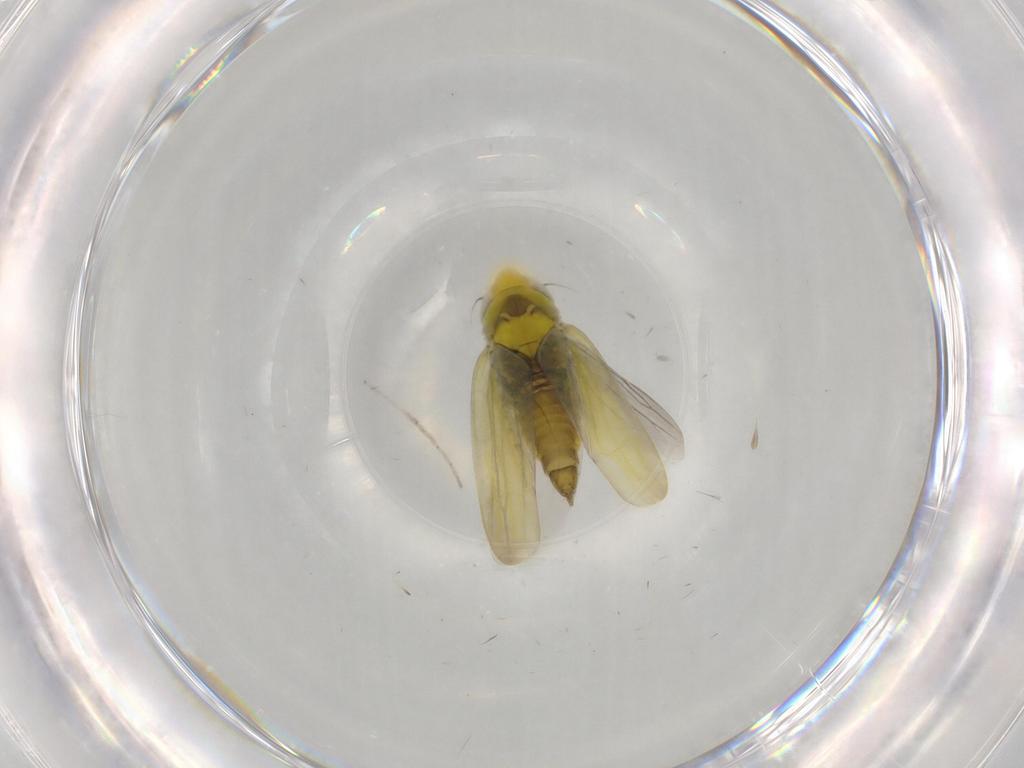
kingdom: Animalia
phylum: Arthropoda
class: Insecta
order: Hemiptera
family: Cicadellidae
